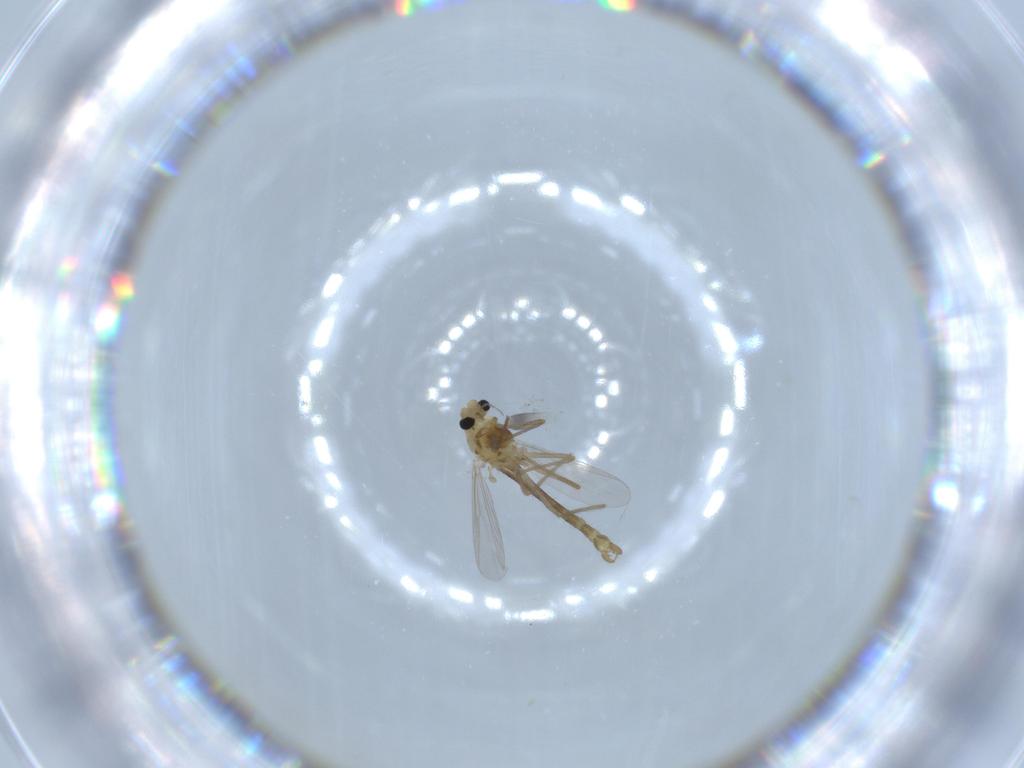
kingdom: Animalia
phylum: Arthropoda
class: Insecta
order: Diptera
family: Chironomidae
